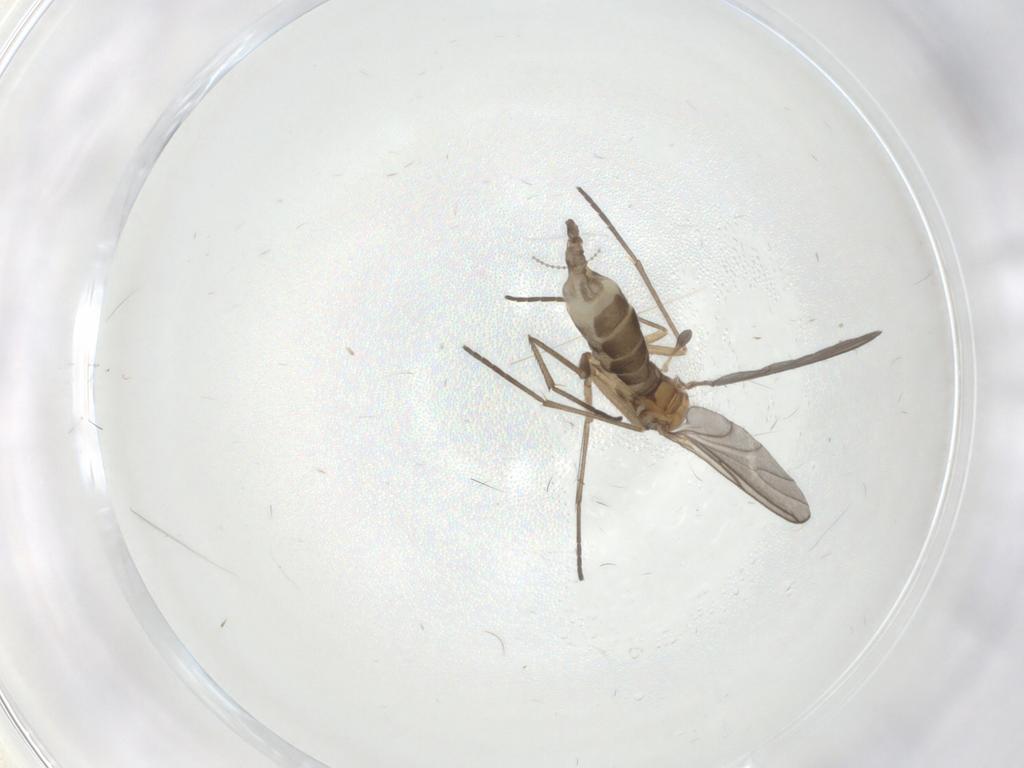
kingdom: Animalia
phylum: Arthropoda
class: Insecta
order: Diptera
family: Sciaridae
